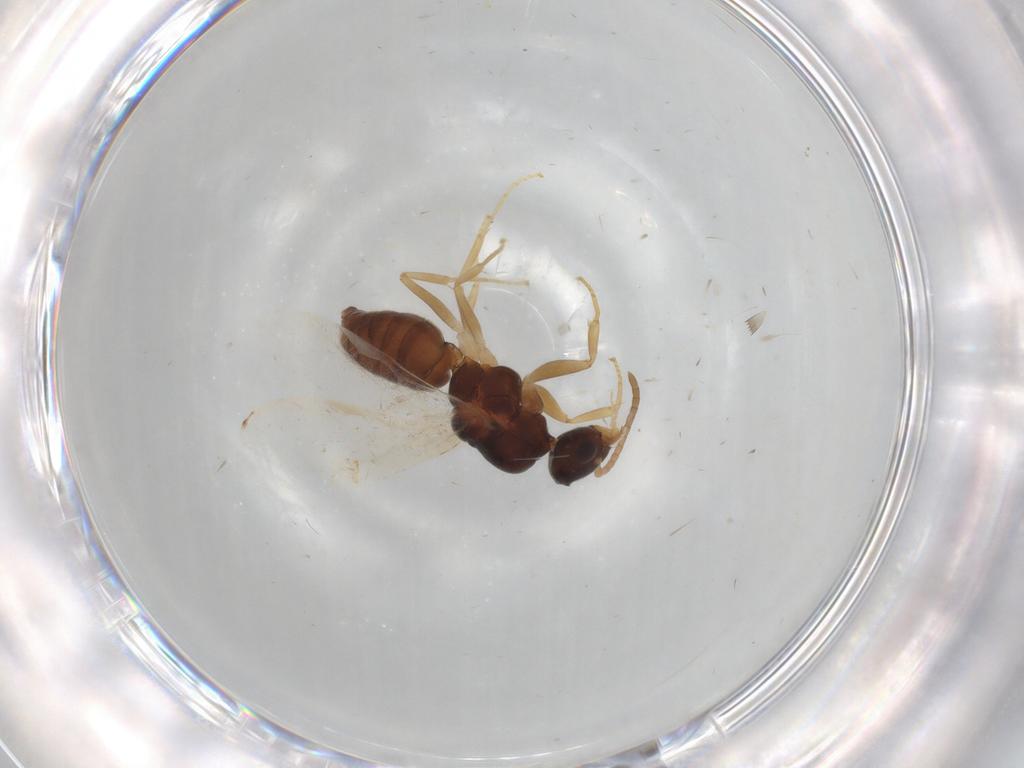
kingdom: Animalia
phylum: Arthropoda
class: Insecta
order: Hymenoptera
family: Formicidae
